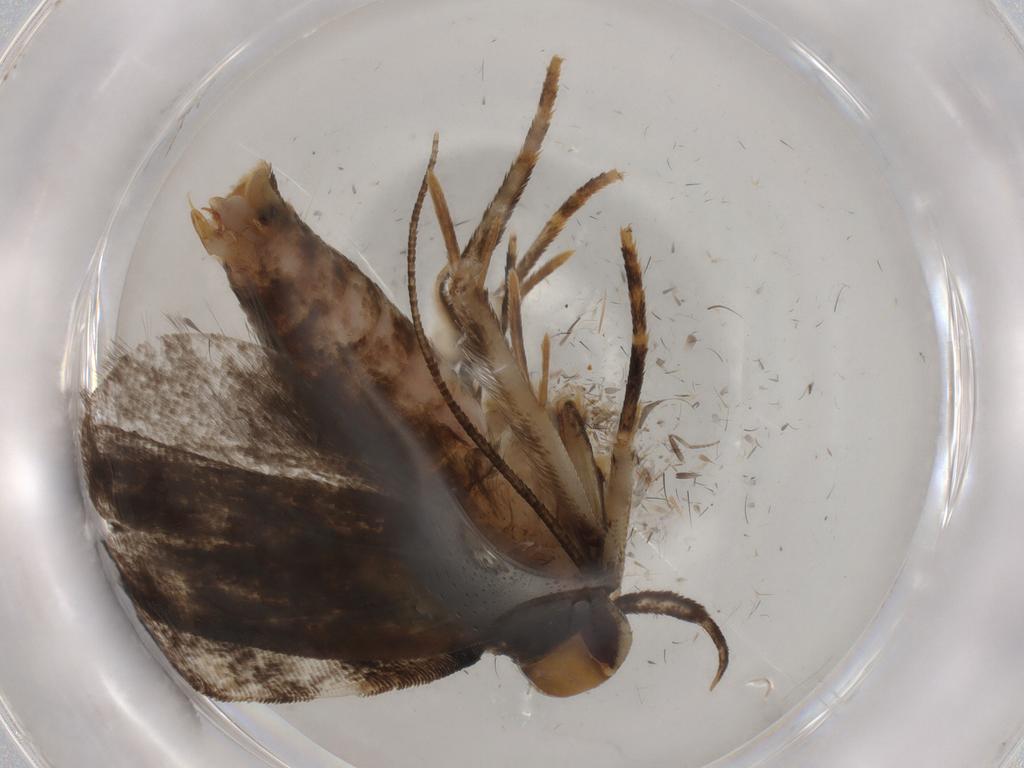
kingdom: Animalia
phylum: Arthropoda
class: Insecta
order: Lepidoptera
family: Gelechiidae
